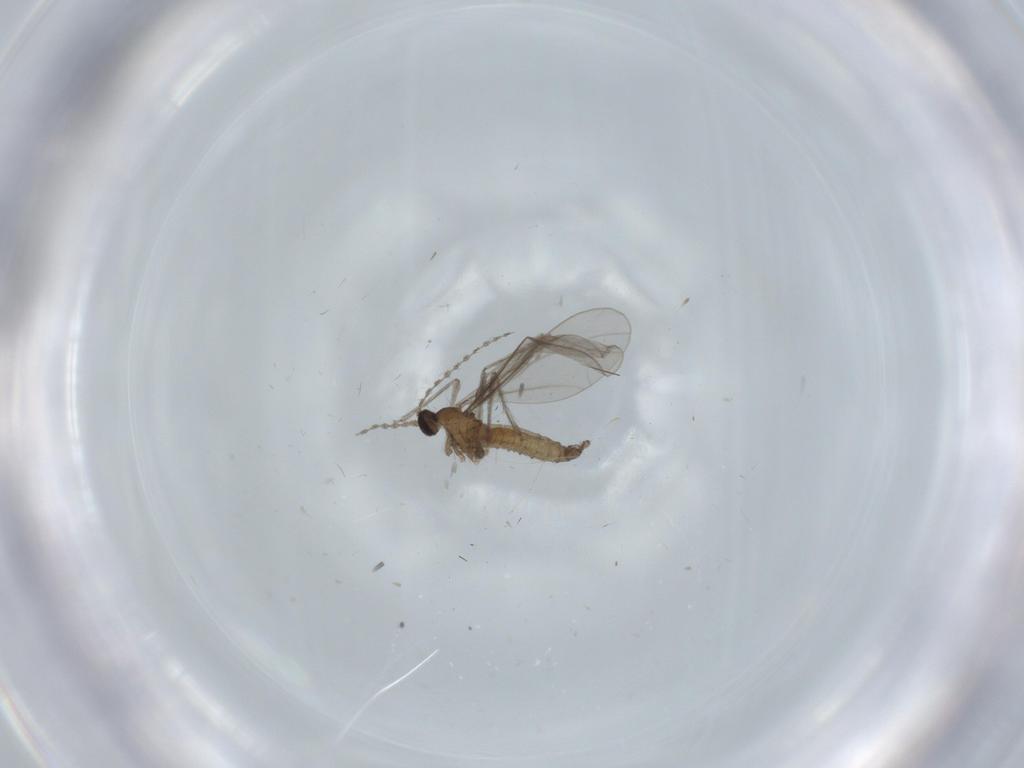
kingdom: Animalia
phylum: Arthropoda
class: Insecta
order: Diptera
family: Cecidomyiidae
